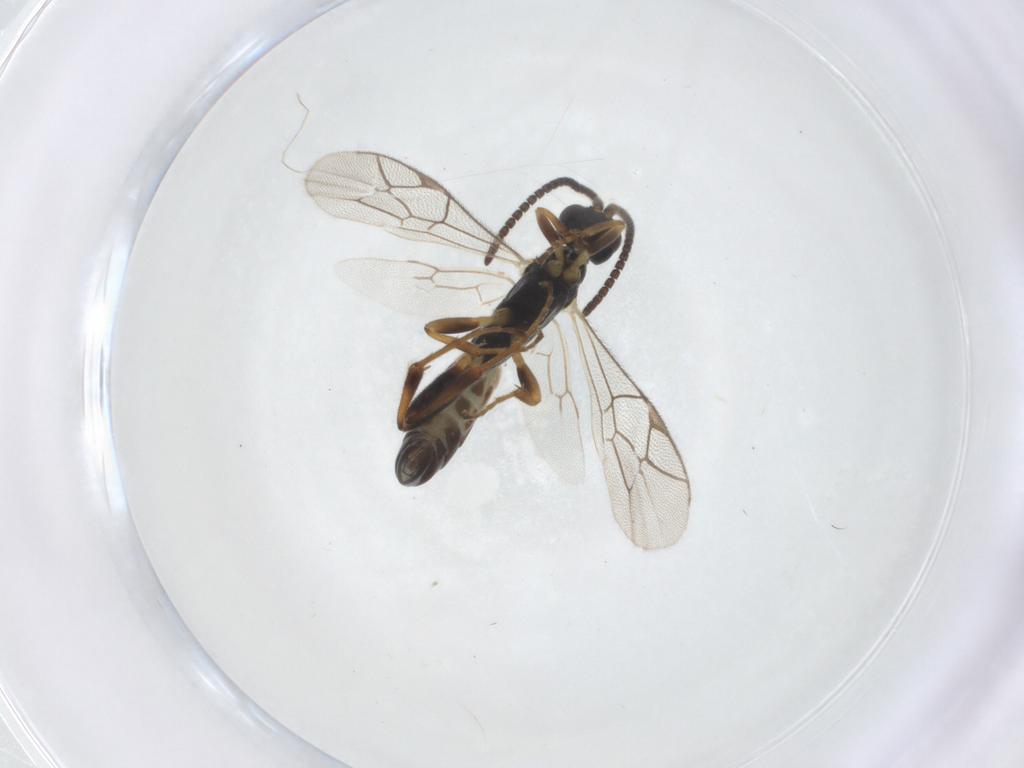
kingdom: Animalia
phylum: Arthropoda
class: Insecta
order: Hymenoptera
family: Ichneumonidae
